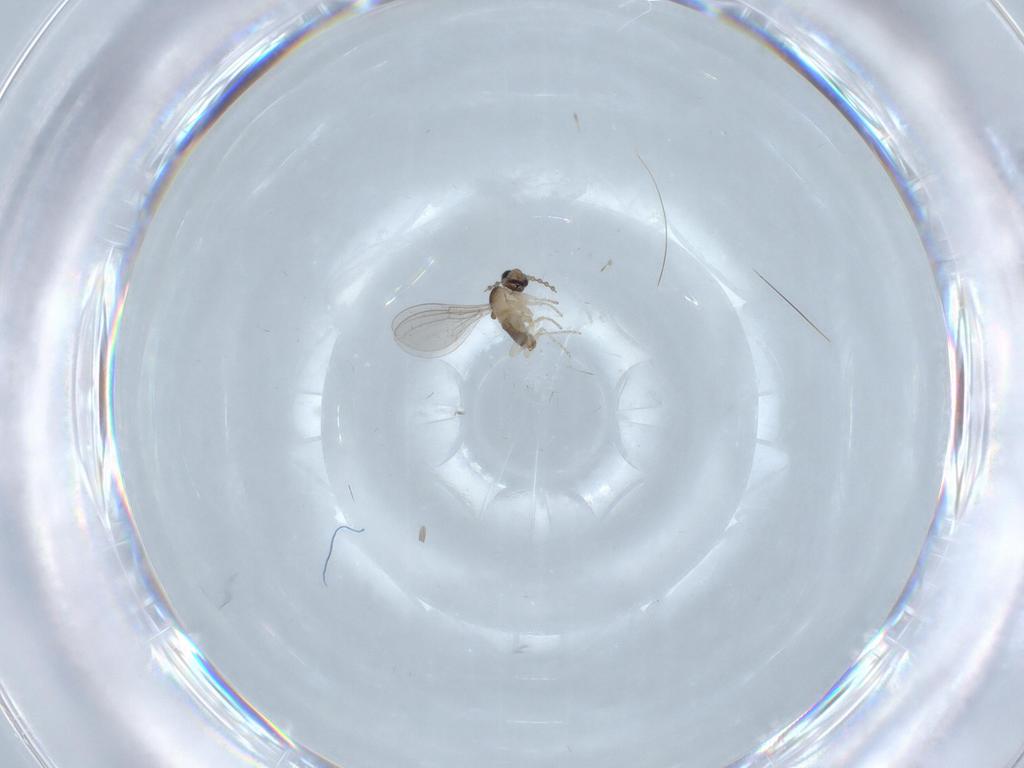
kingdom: Animalia
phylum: Arthropoda
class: Insecta
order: Diptera
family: Cecidomyiidae
